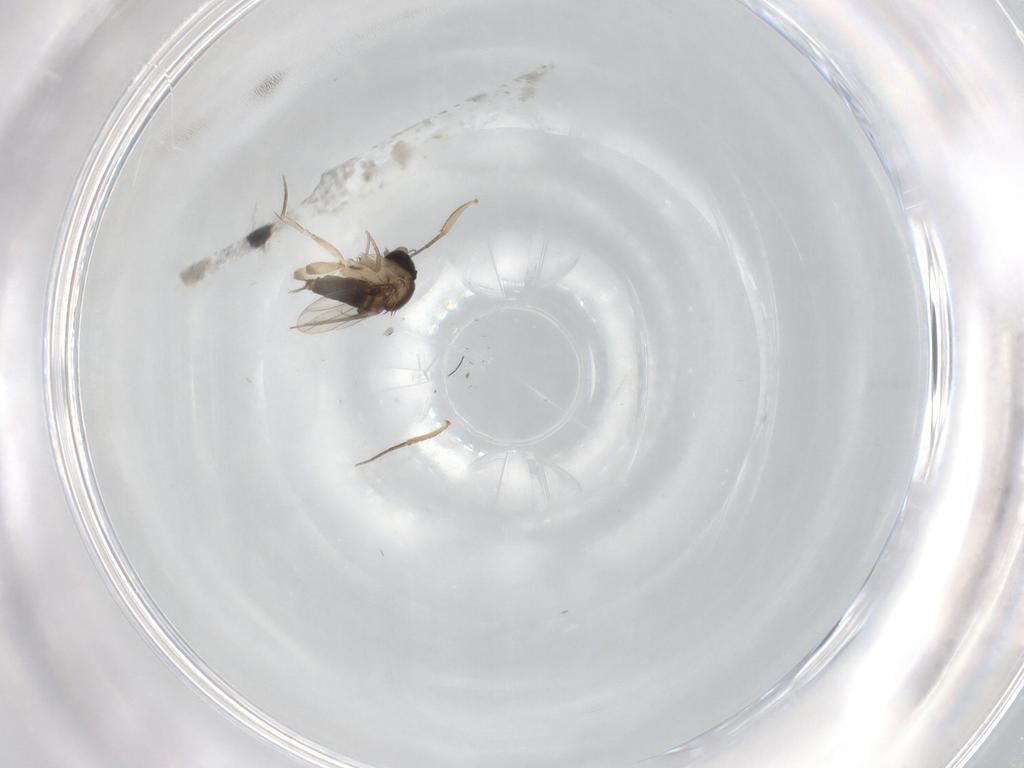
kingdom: Animalia
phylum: Arthropoda
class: Insecta
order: Diptera
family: Phoridae
